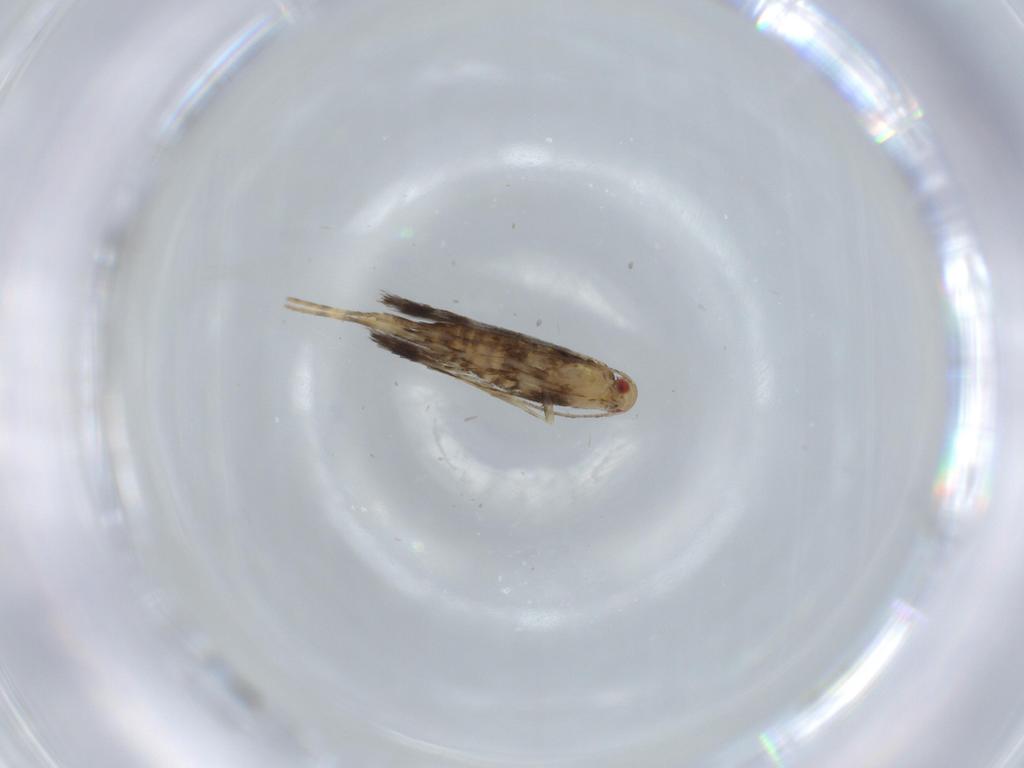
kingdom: Animalia
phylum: Arthropoda
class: Insecta
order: Lepidoptera
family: Gracillariidae
